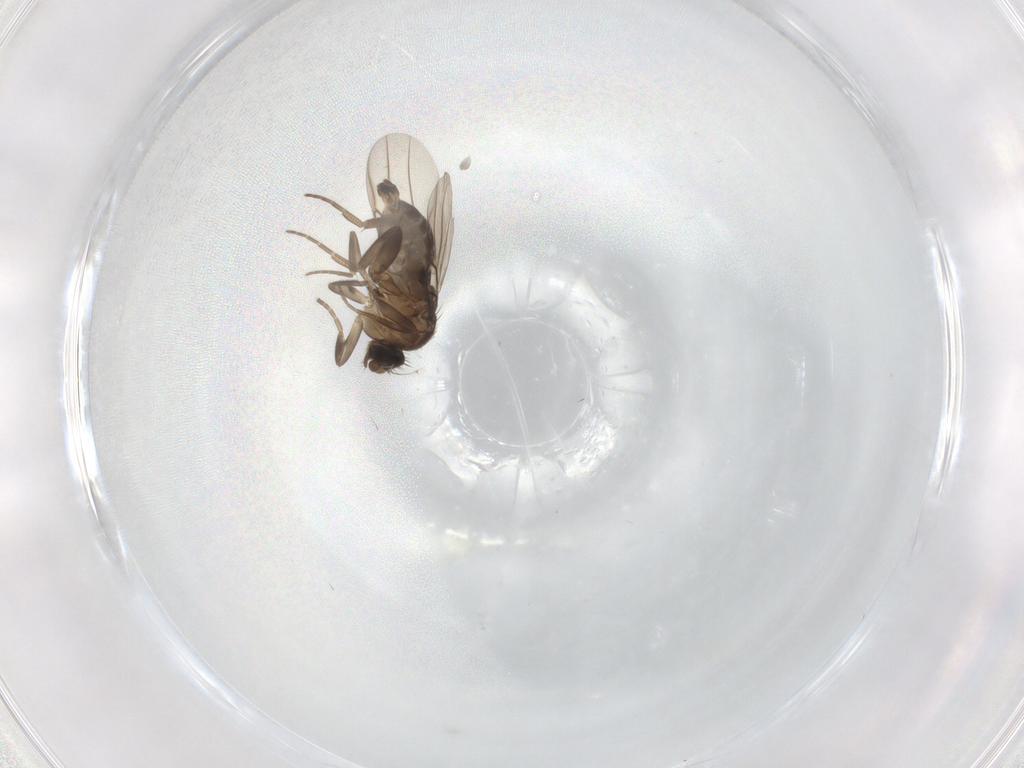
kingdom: Animalia
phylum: Arthropoda
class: Insecta
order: Diptera
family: Phoridae
